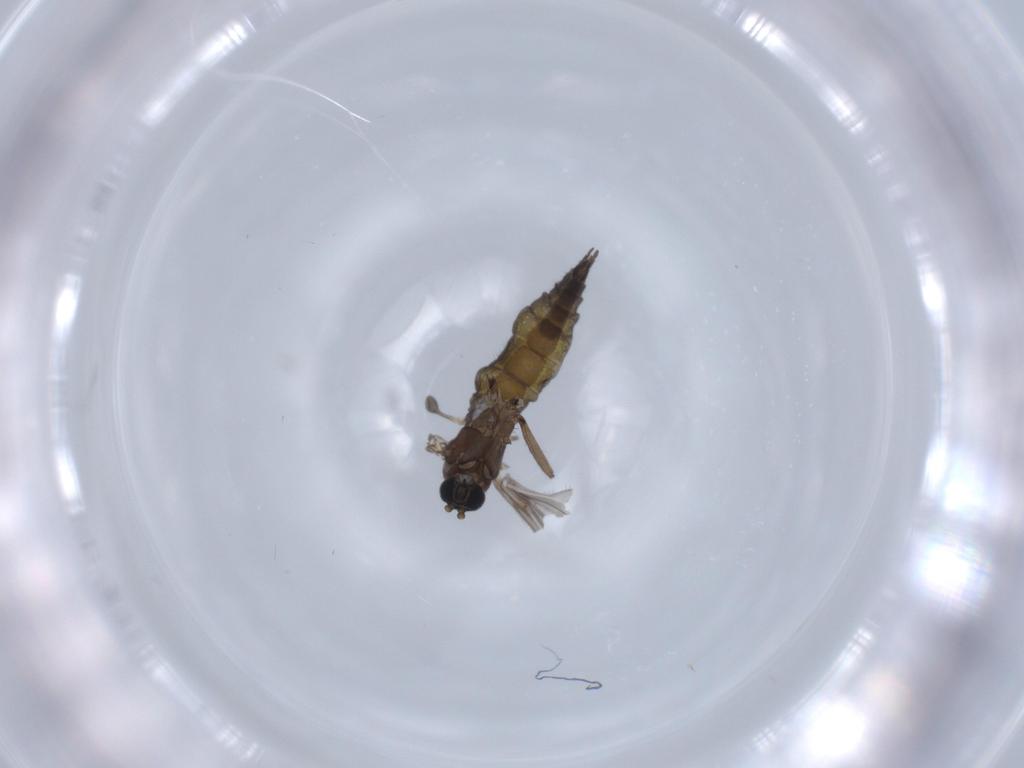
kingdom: Animalia
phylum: Arthropoda
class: Insecta
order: Diptera
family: Sciaridae
